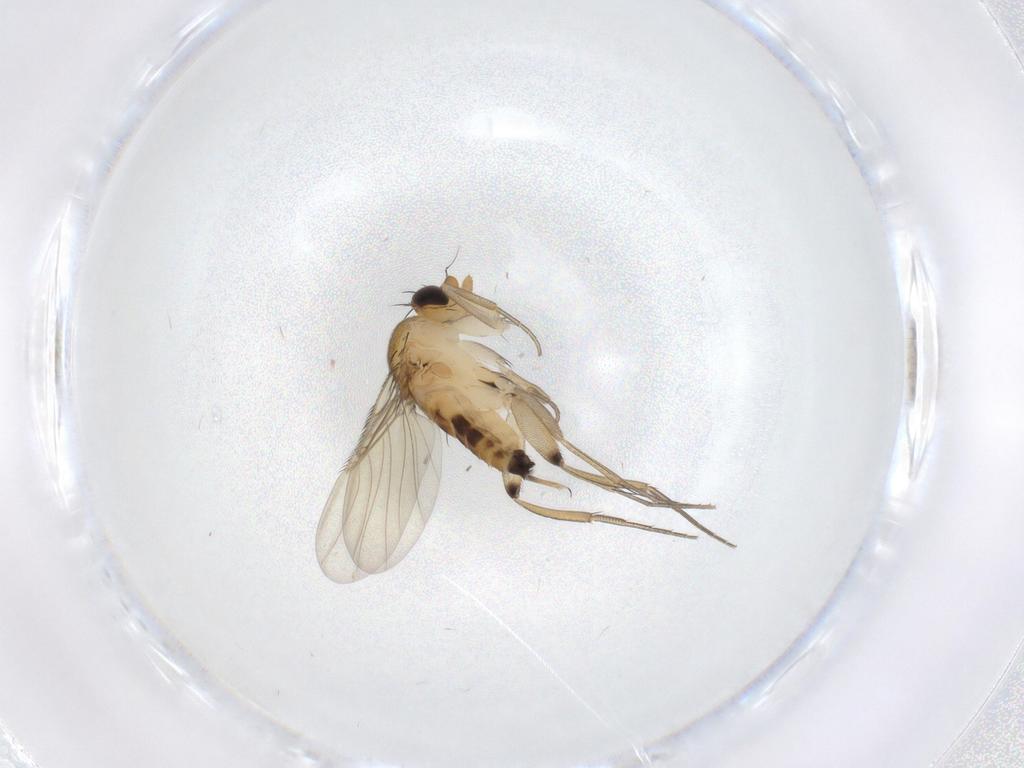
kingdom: Animalia
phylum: Arthropoda
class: Insecta
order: Diptera
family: Phoridae
